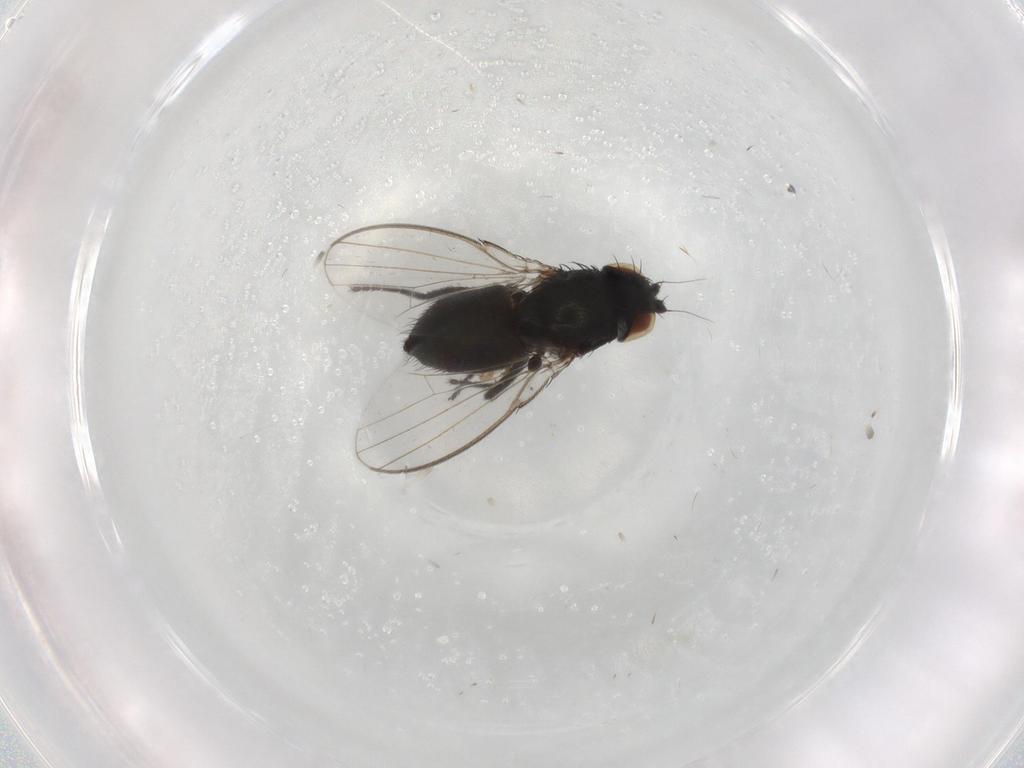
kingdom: Animalia
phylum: Arthropoda
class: Insecta
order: Diptera
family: Milichiidae
